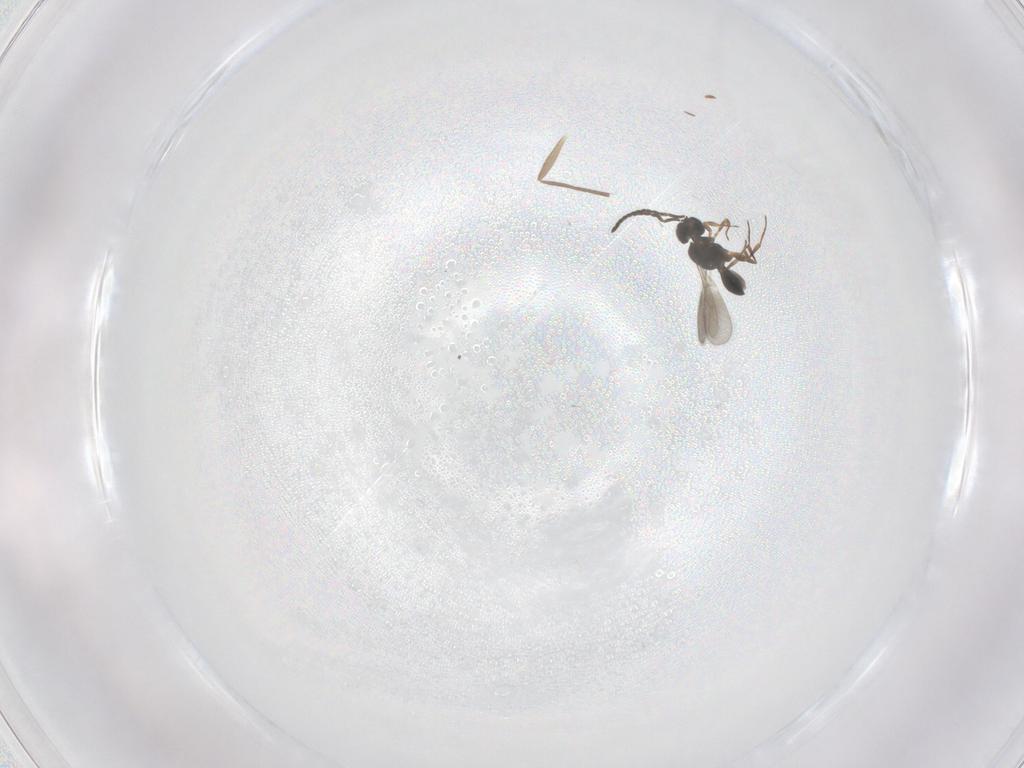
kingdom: Animalia
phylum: Arthropoda
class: Insecta
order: Hymenoptera
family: Scelionidae
